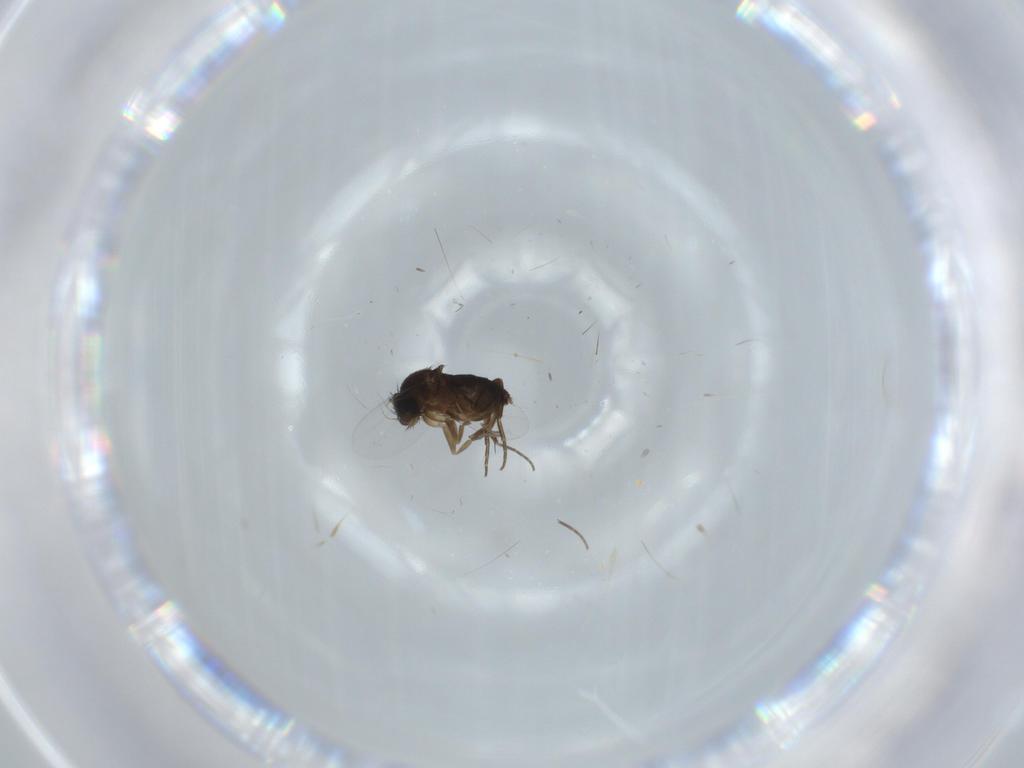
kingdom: Animalia
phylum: Arthropoda
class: Insecta
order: Diptera
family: Phoridae
